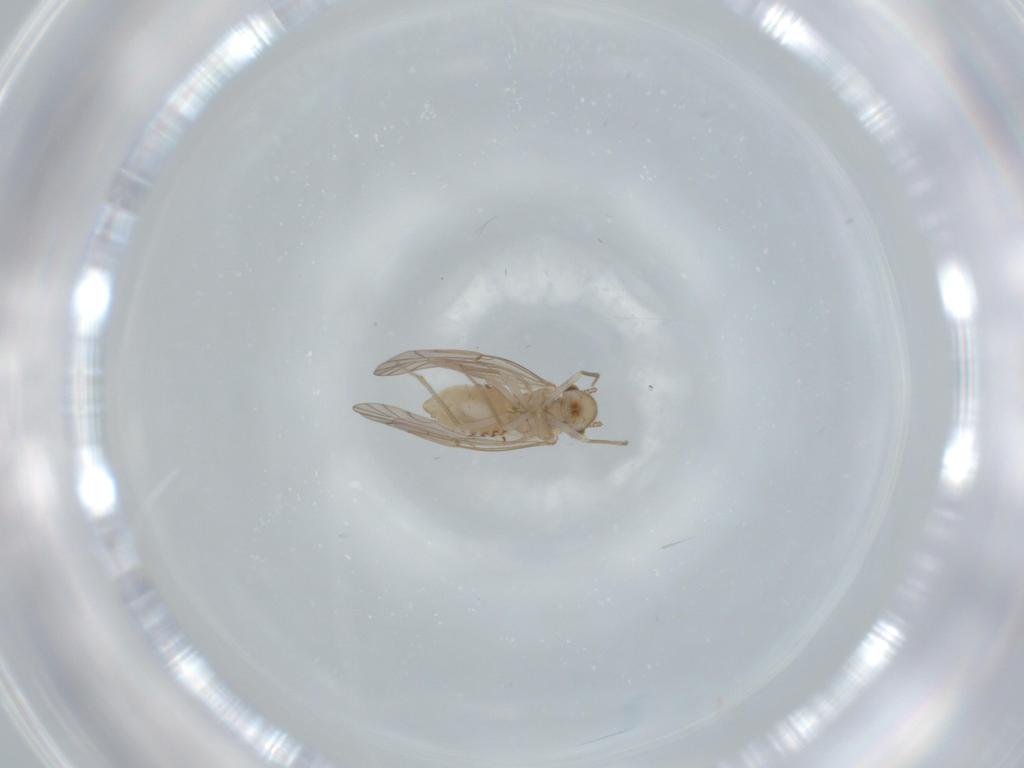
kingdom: Animalia
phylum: Arthropoda
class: Insecta
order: Psocodea
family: Lachesillidae
